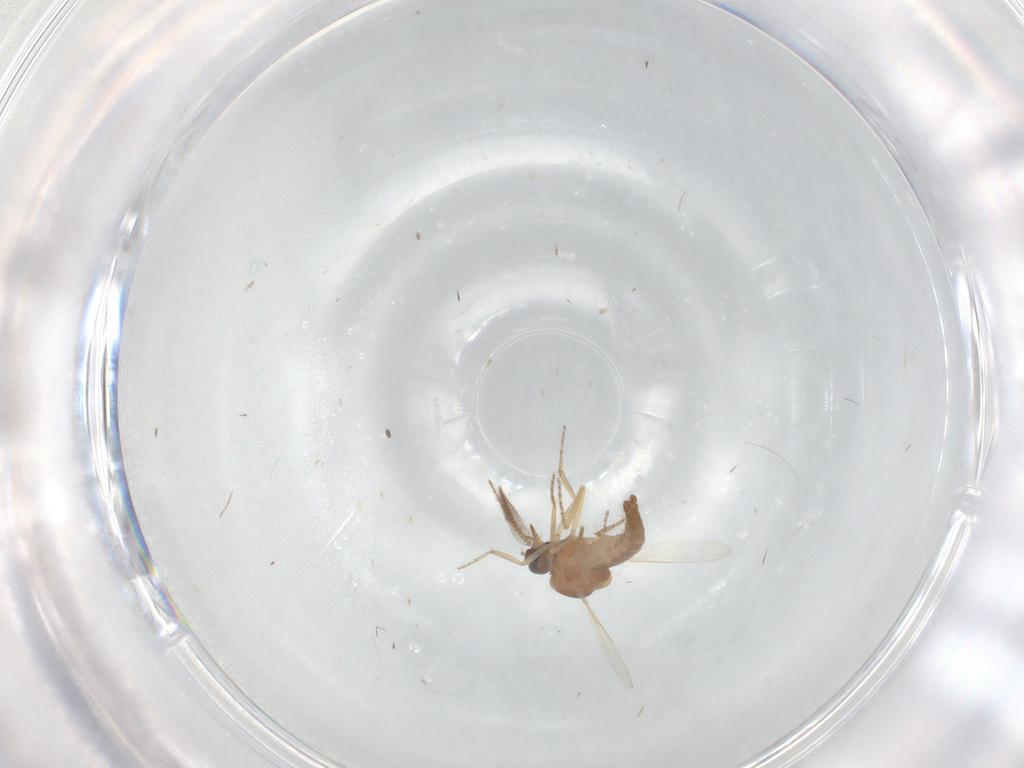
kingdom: Animalia
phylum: Arthropoda
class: Insecta
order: Diptera
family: Ceratopogonidae
